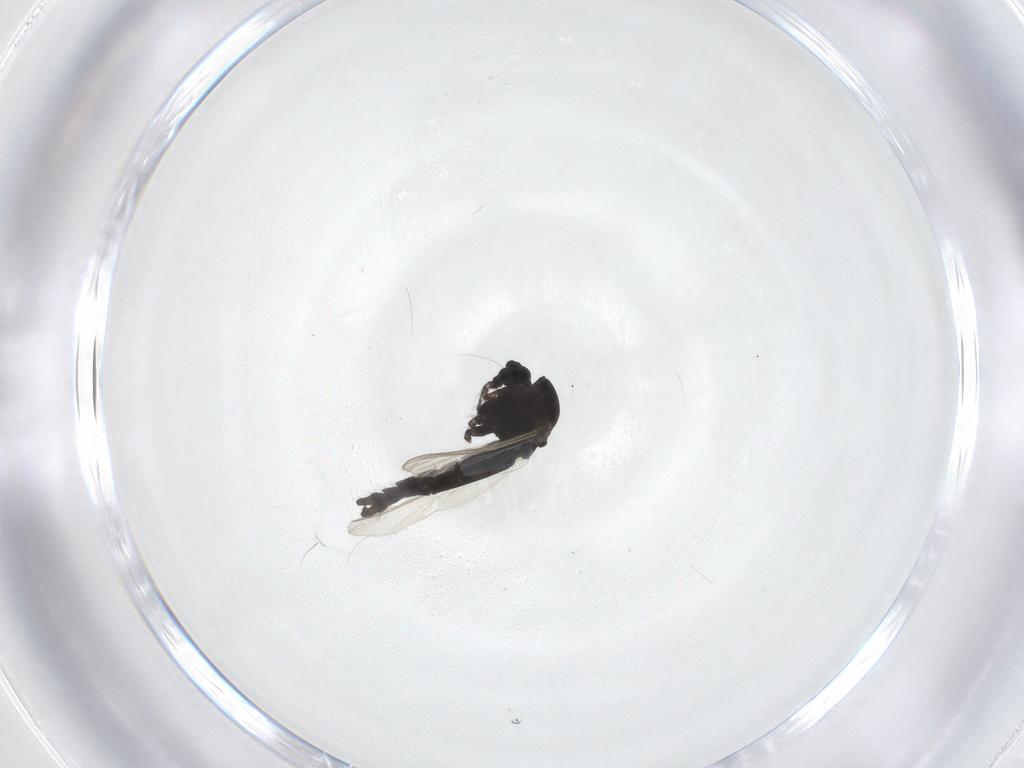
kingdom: Animalia
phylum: Arthropoda
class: Insecta
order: Diptera
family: Chironomidae
